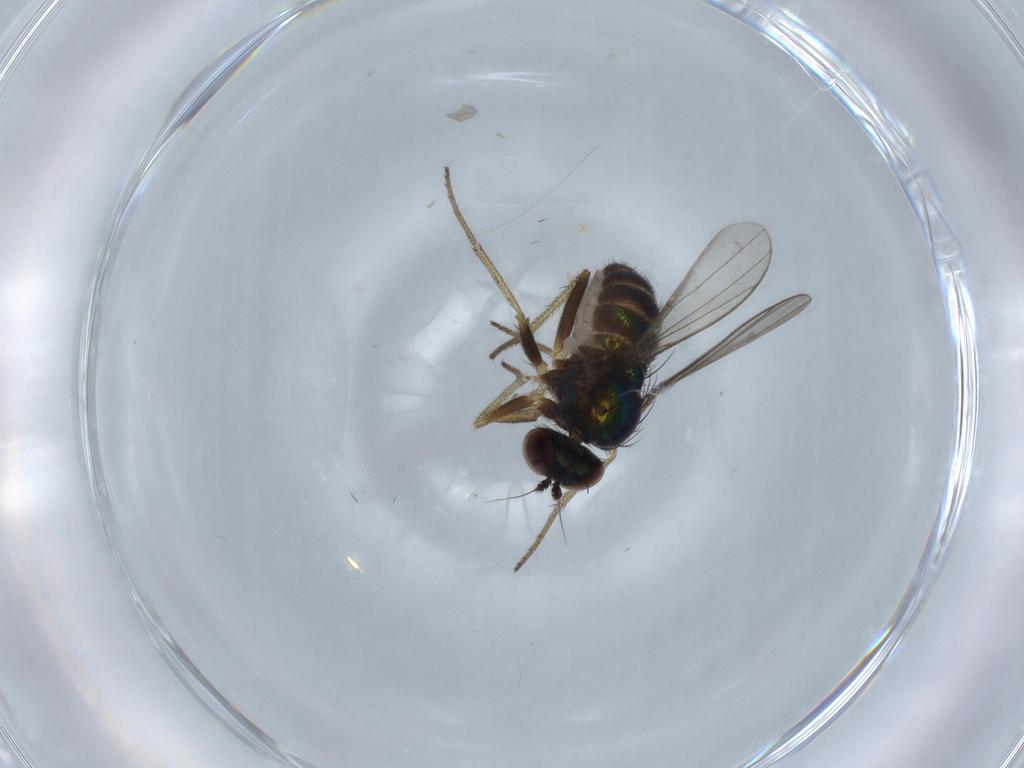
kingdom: Animalia
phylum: Arthropoda
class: Insecta
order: Diptera
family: Dolichopodidae
